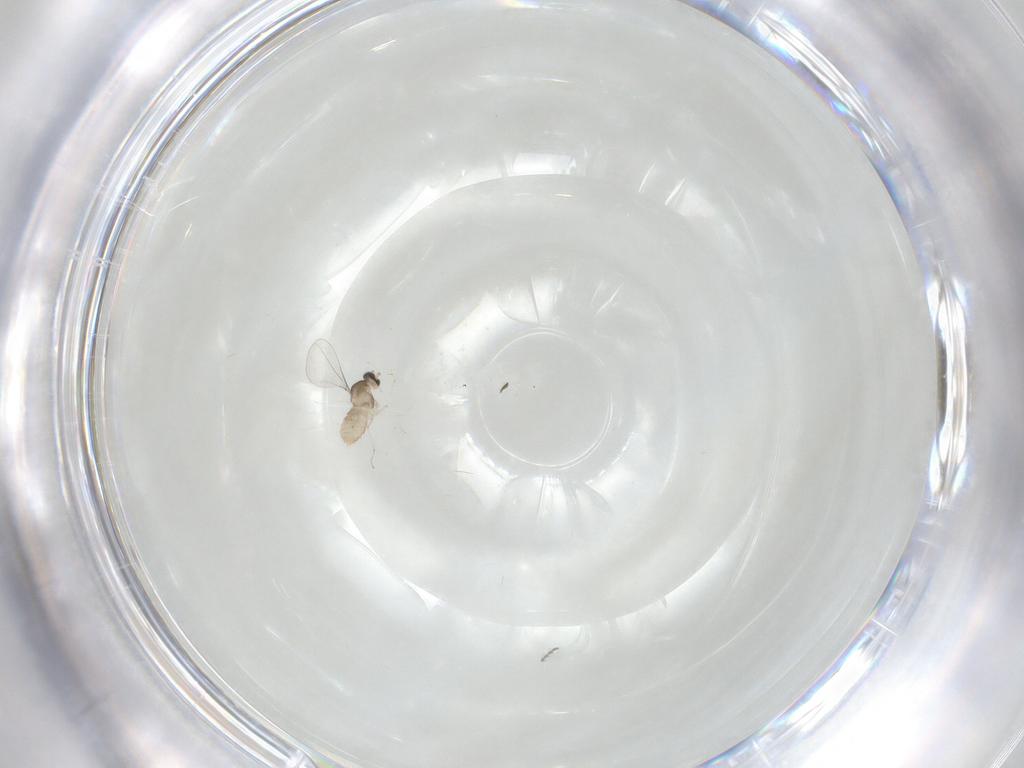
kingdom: Animalia
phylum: Arthropoda
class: Insecta
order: Diptera
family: Cecidomyiidae
